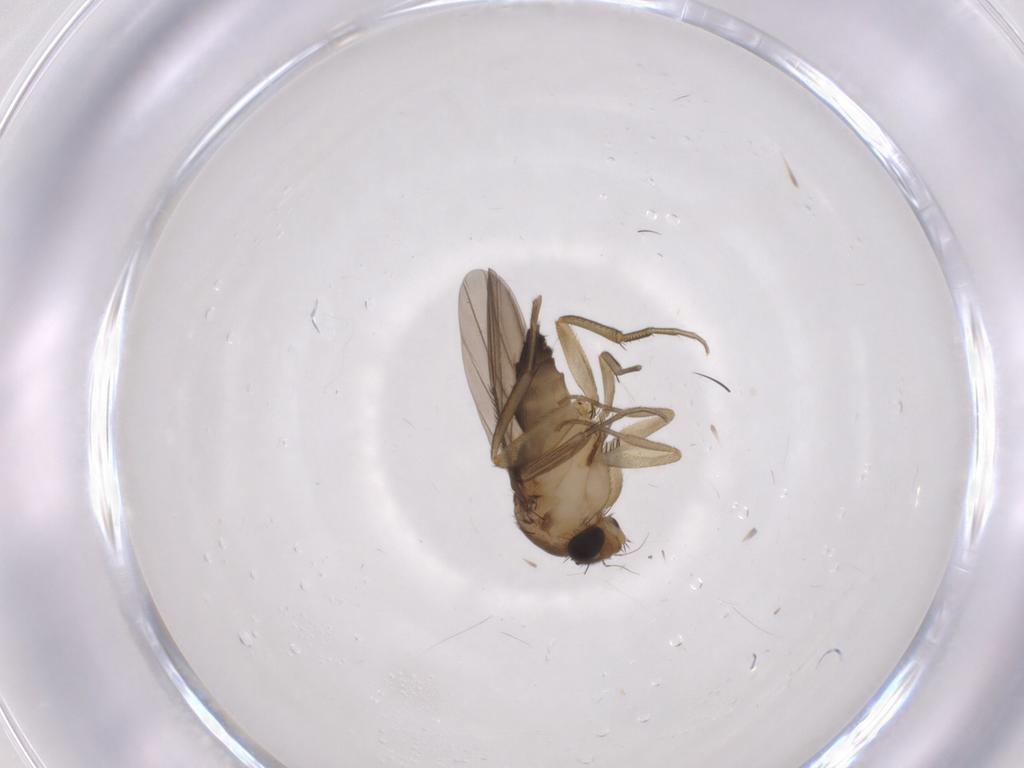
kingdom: Animalia
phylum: Arthropoda
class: Insecta
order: Diptera
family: Phoridae
